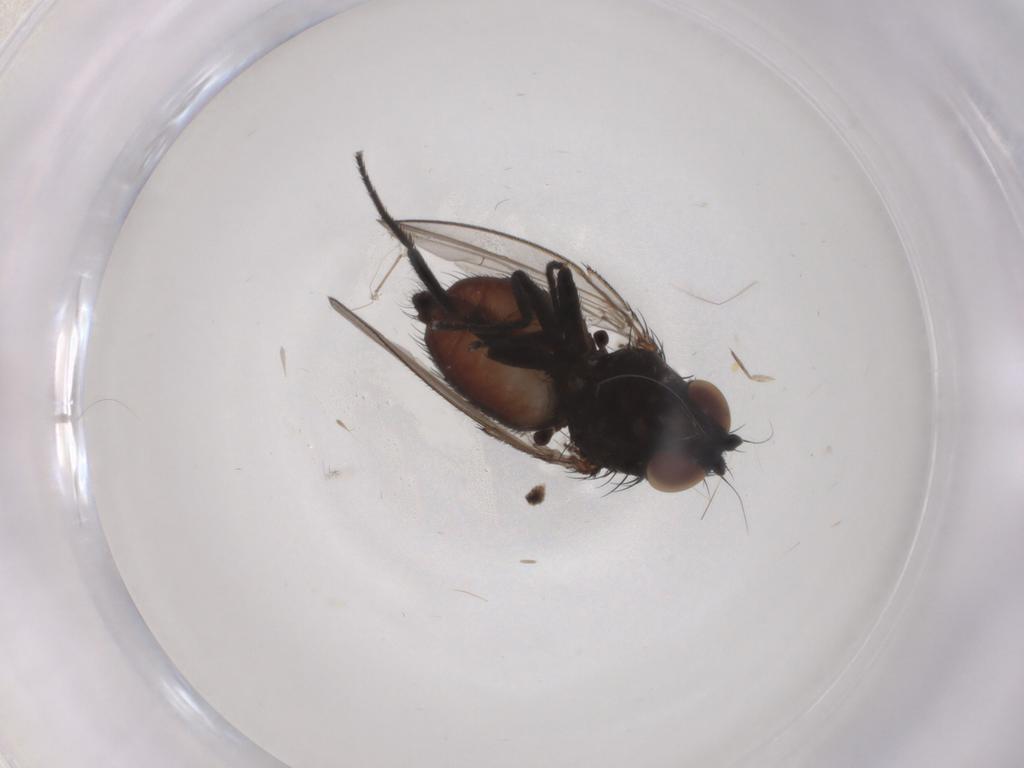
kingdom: Animalia
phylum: Arthropoda
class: Insecta
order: Diptera
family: Milichiidae
